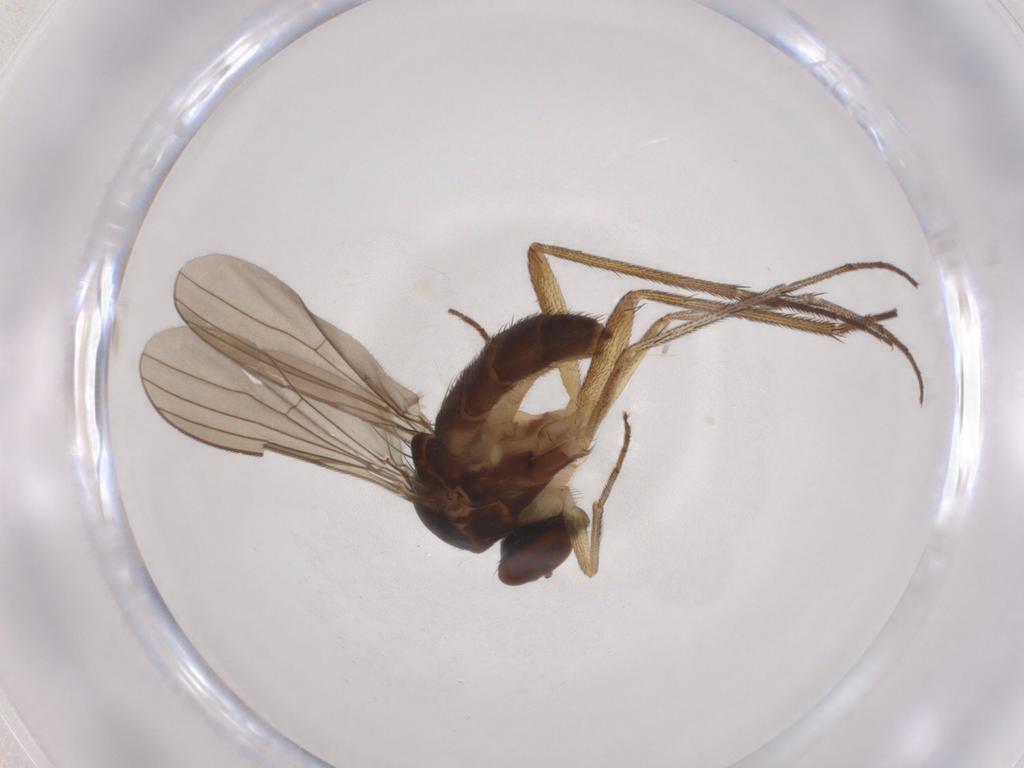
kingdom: Animalia
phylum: Arthropoda
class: Insecta
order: Diptera
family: Dolichopodidae
